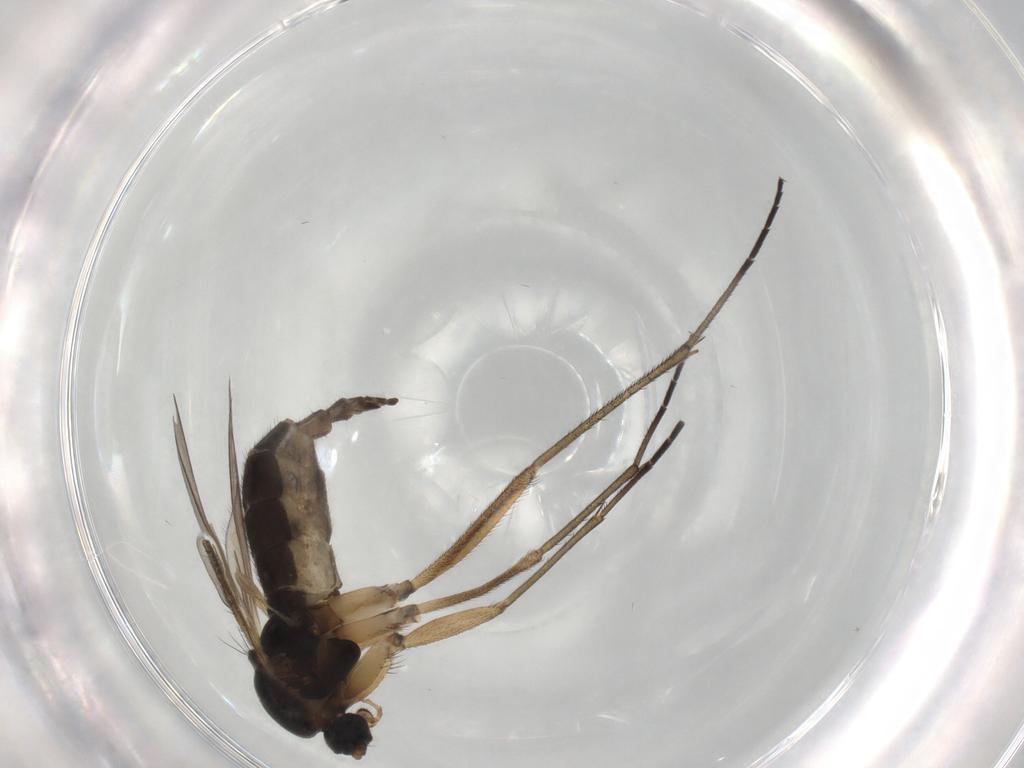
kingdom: Animalia
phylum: Arthropoda
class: Insecta
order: Diptera
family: Sciaridae
